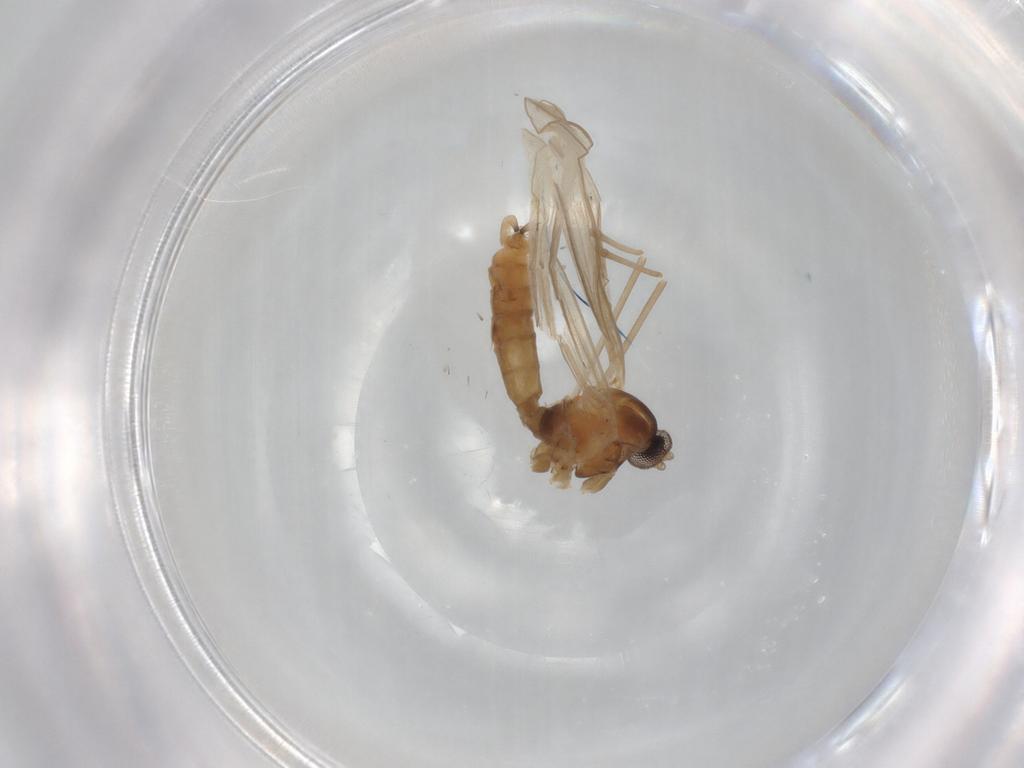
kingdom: Animalia
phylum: Arthropoda
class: Insecta
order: Diptera
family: Cecidomyiidae
